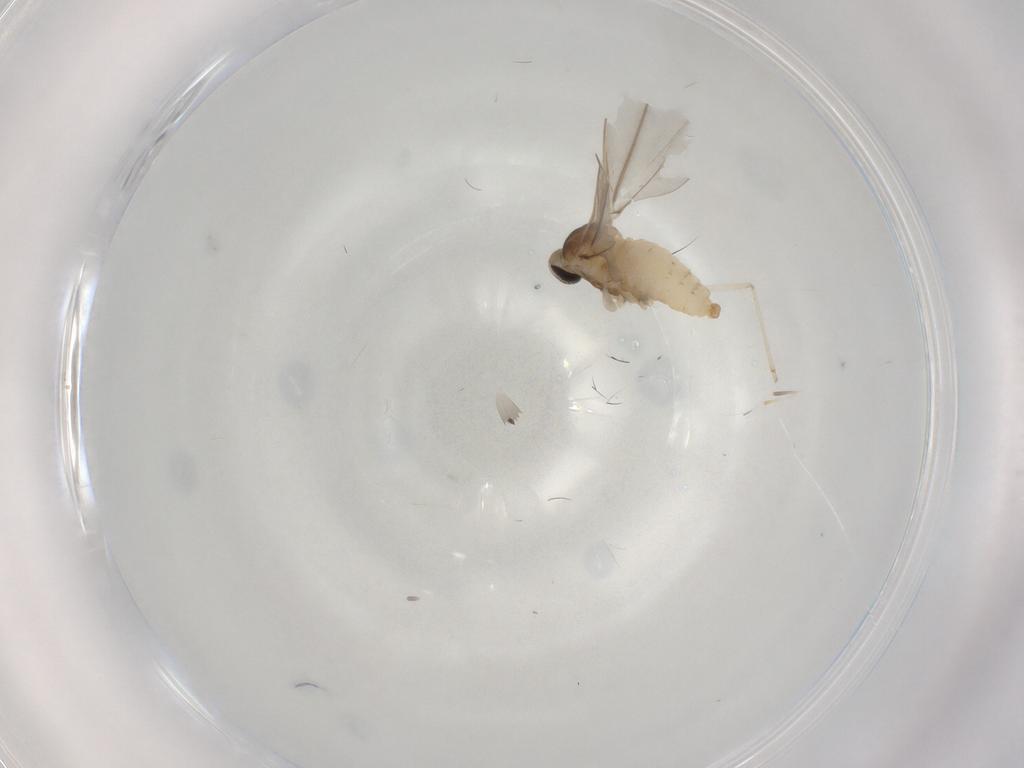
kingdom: Animalia
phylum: Arthropoda
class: Insecta
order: Diptera
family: Cecidomyiidae
